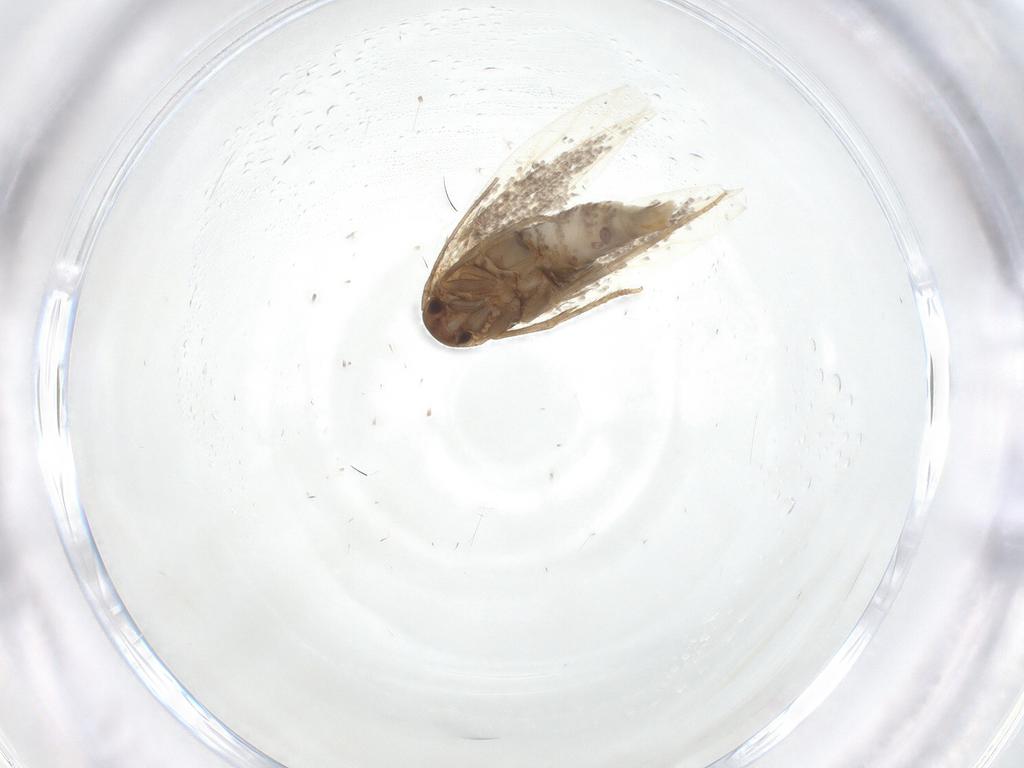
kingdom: Animalia
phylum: Arthropoda
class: Insecta
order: Lepidoptera
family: Elachistidae
